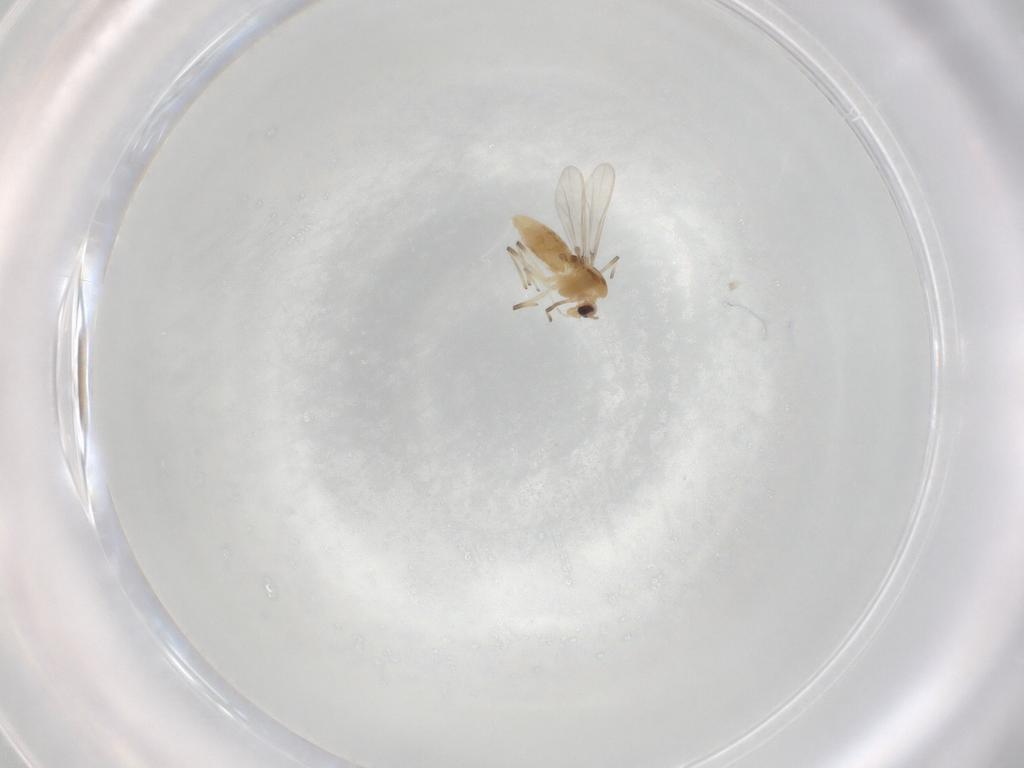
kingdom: Animalia
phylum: Arthropoda
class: Insecta
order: Diptera
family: Chironomidae
